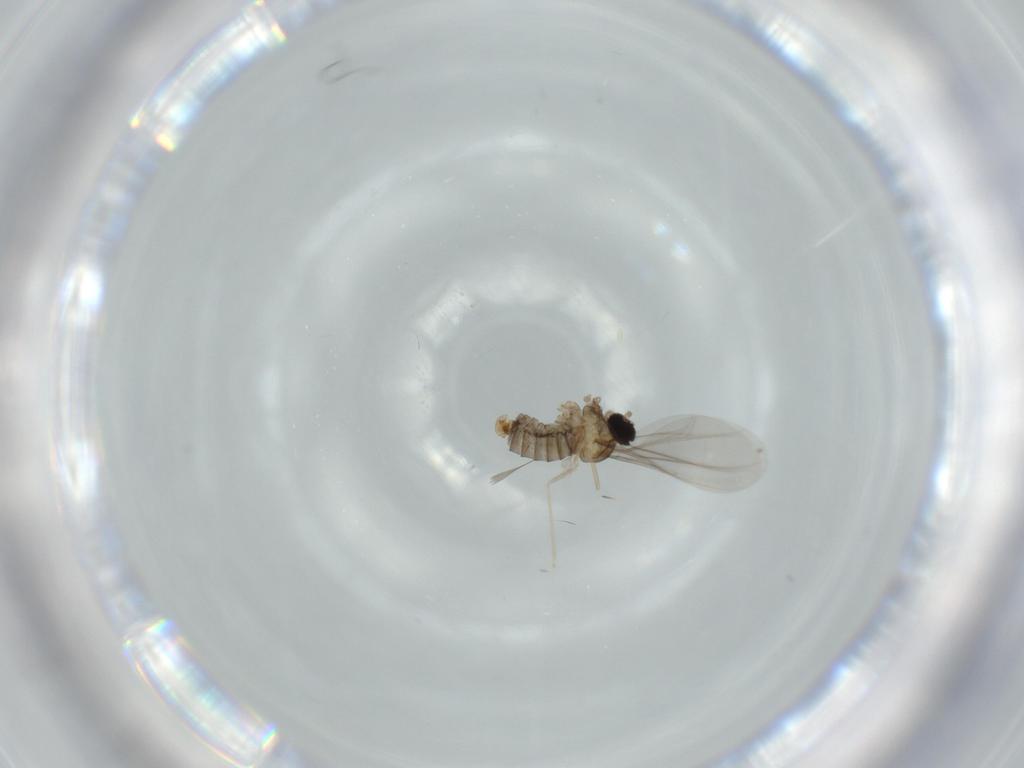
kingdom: Animalia
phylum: Arthropoda
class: Insecta
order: Diptera
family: Cecidomyiidae
